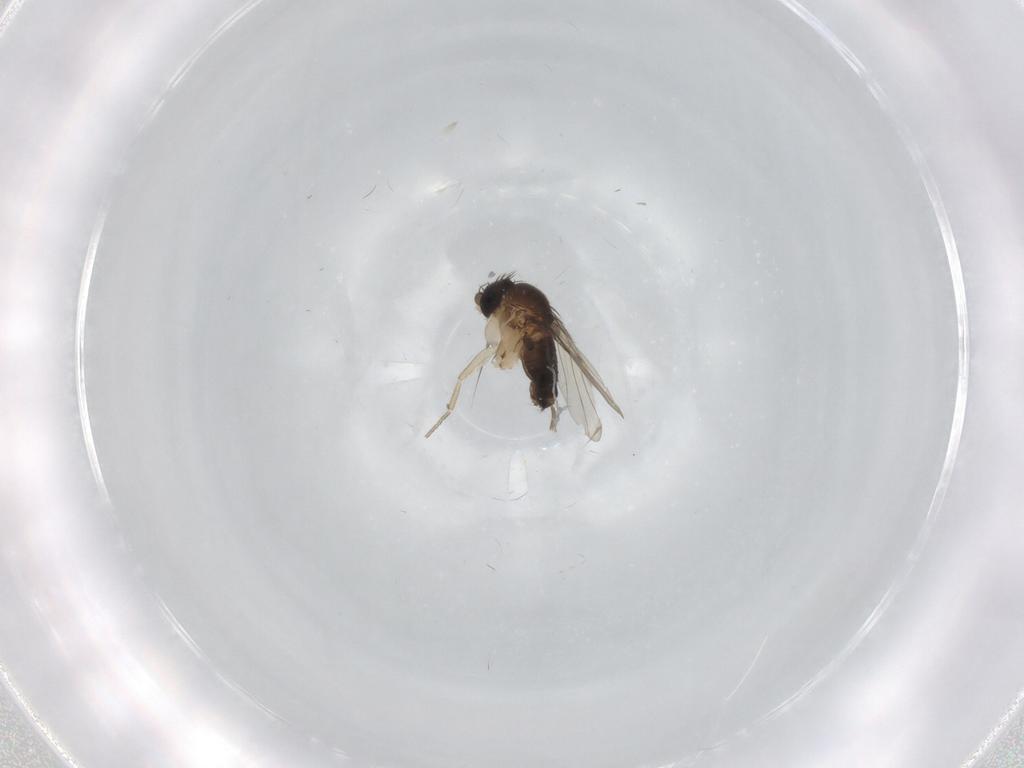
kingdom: Animalia
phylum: Arthropoda
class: Insecta
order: Diptera
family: Phoridae
